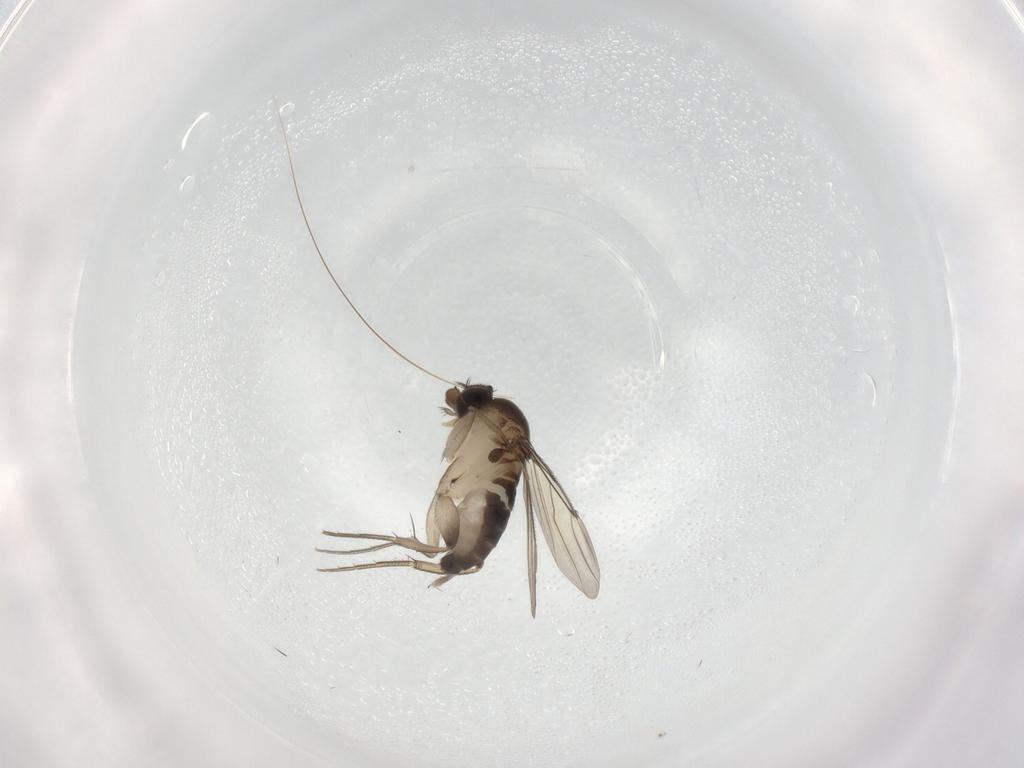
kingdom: Animalia
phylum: Arthropoda
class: Insecta
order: Diptera
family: Phoridae
